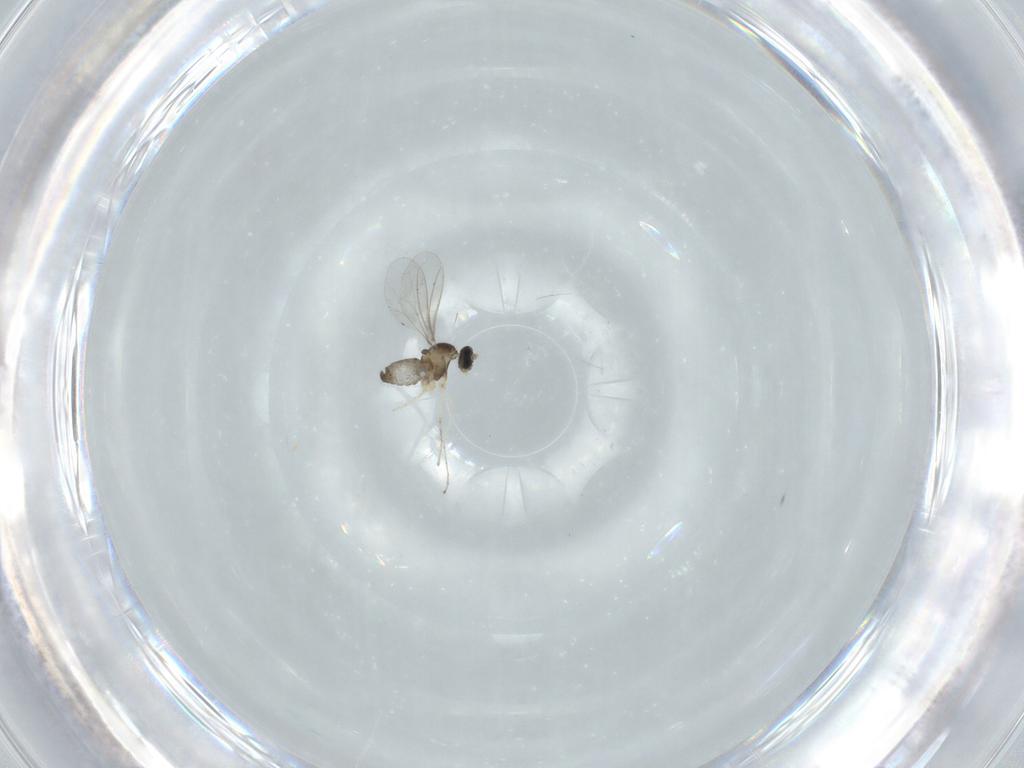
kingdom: Animalia
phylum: Arthropoda
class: Insecta
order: Diptera
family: Cecidomyiidae
